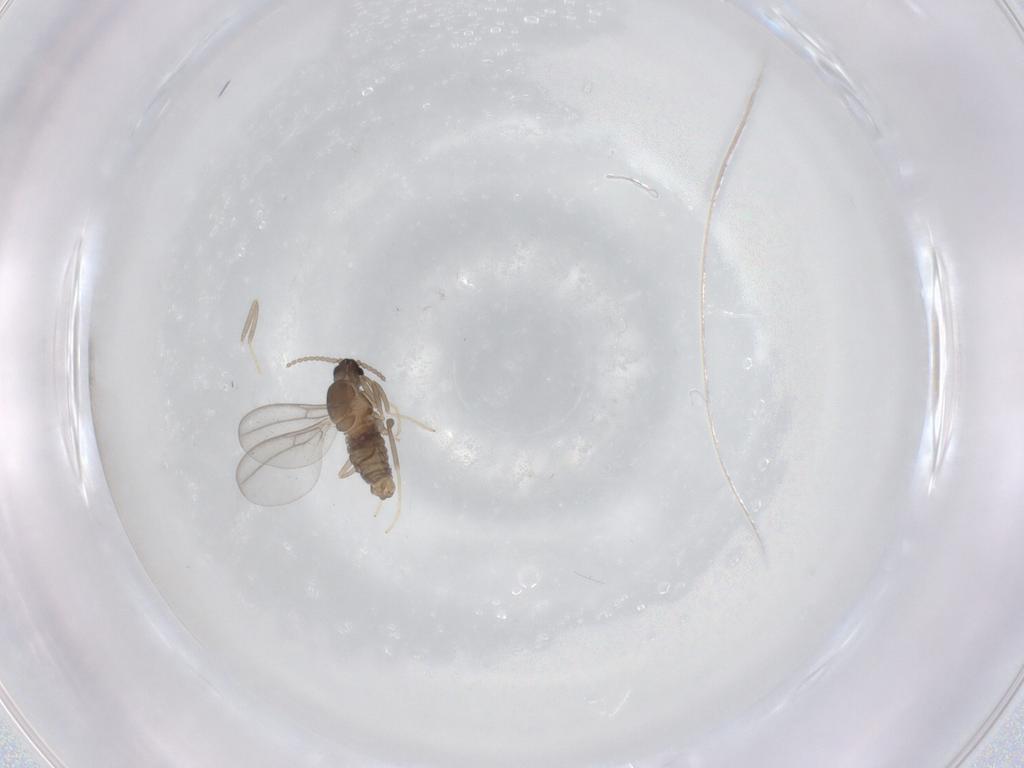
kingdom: Animalia
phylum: Arthropoda
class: Insecta
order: Diptera
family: Cecidomyiidae
